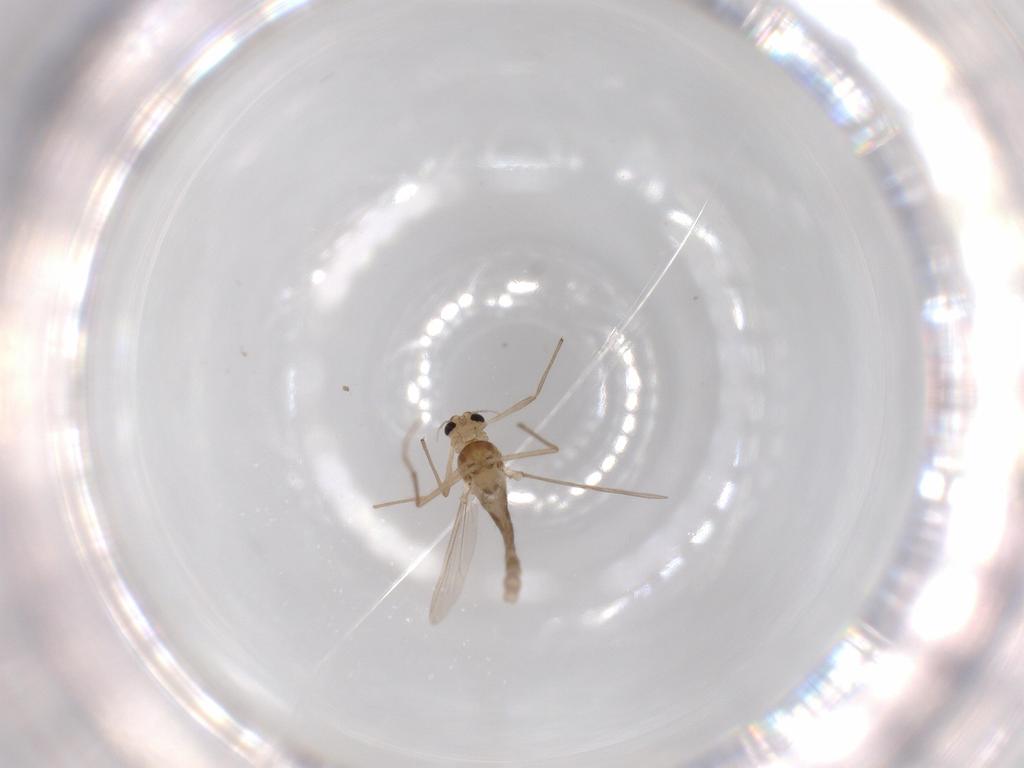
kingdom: Animalia
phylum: Arthropoda
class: Insecta
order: Diptera
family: Chironomidae
